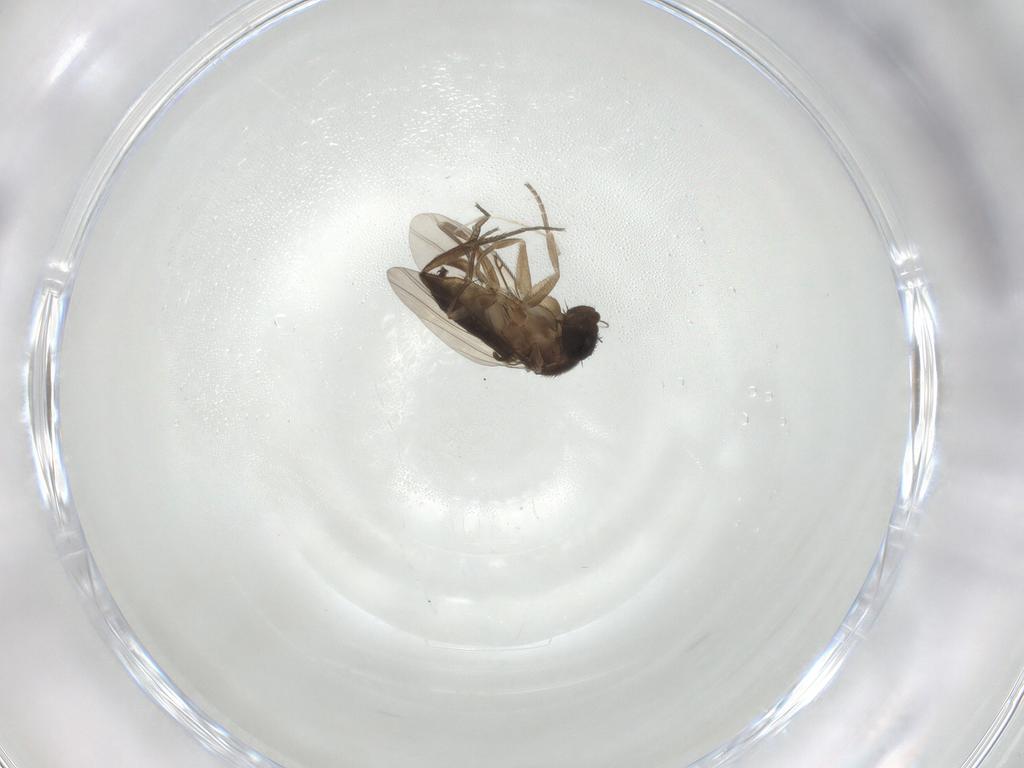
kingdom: Animalia
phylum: Arthropoda
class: Insecta
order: Diptera
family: Phoridae
